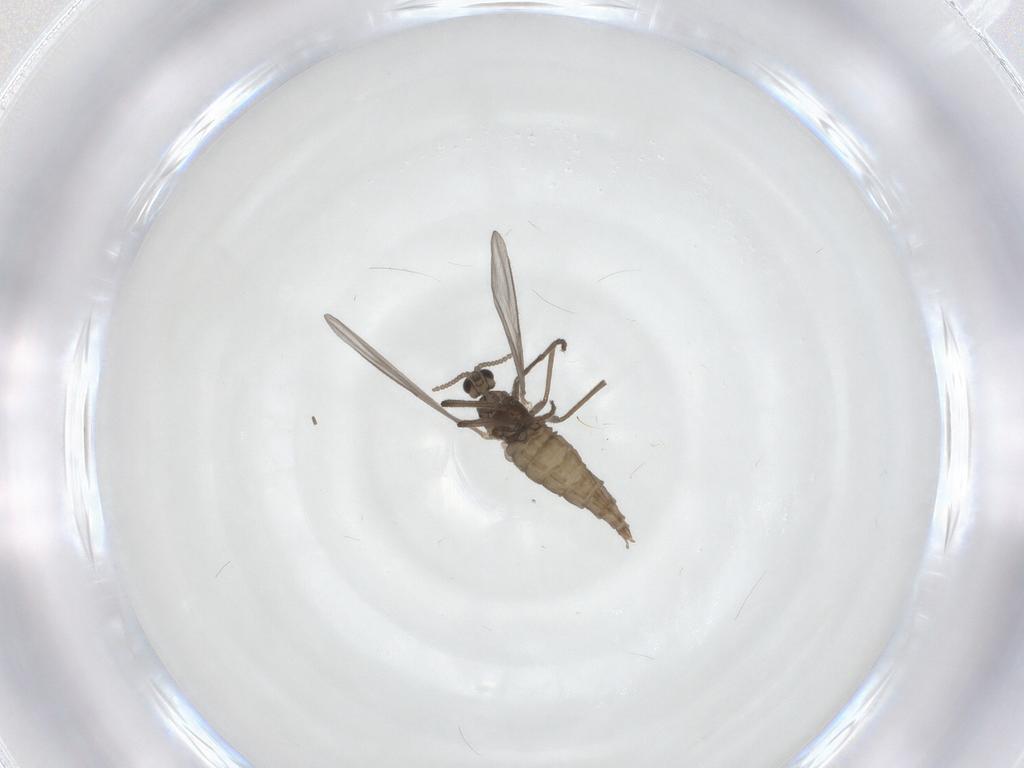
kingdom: Animalia
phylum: Arthropoda
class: Insecta
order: Diptera
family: Cecidomyiidae
